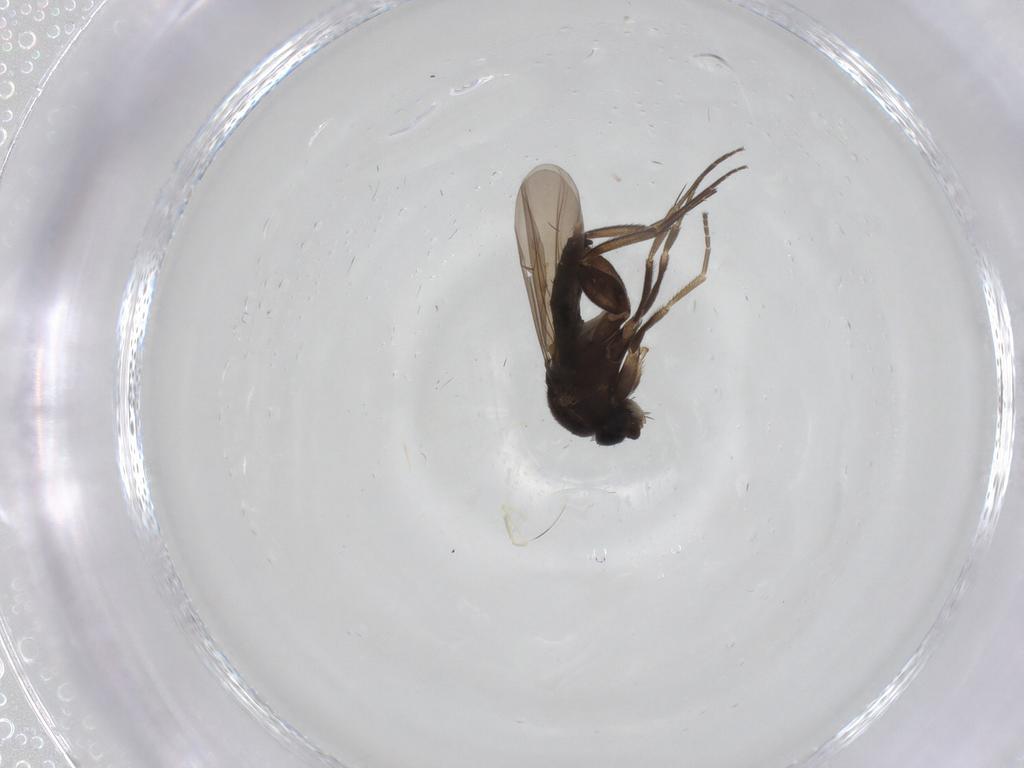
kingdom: Animalia
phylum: Arthropoda
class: Insecta
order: Diptera
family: Phoridae
